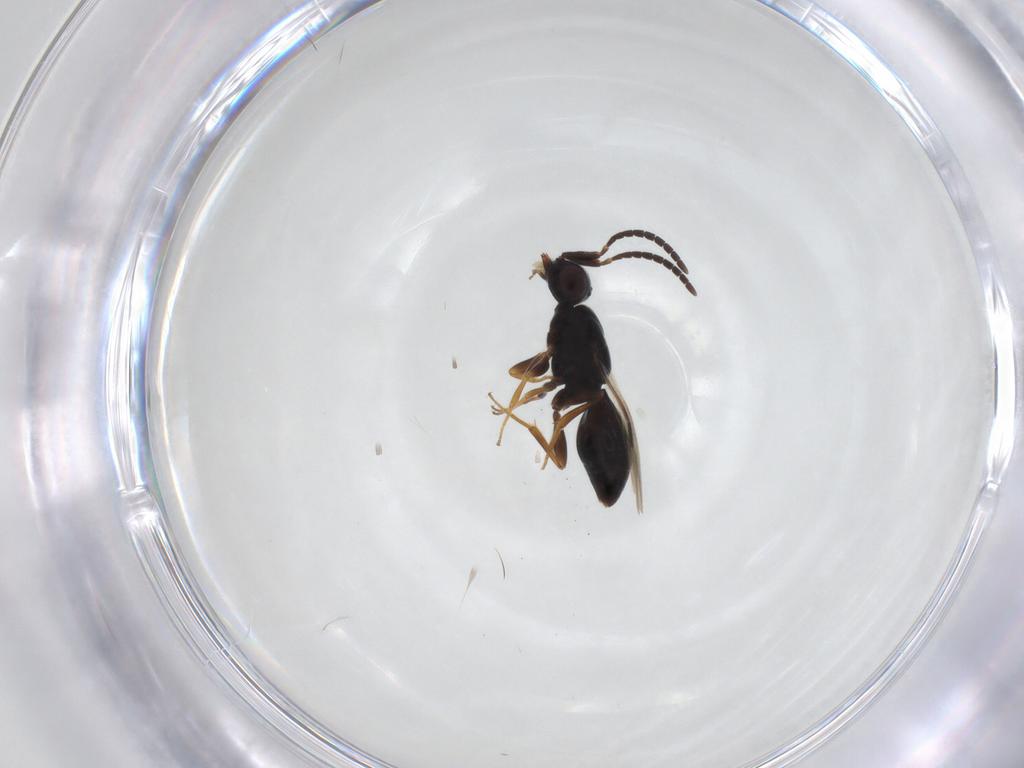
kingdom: Animalia
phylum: Arthropoda
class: Insecta
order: Hymenoptera
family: Megaspilidae
